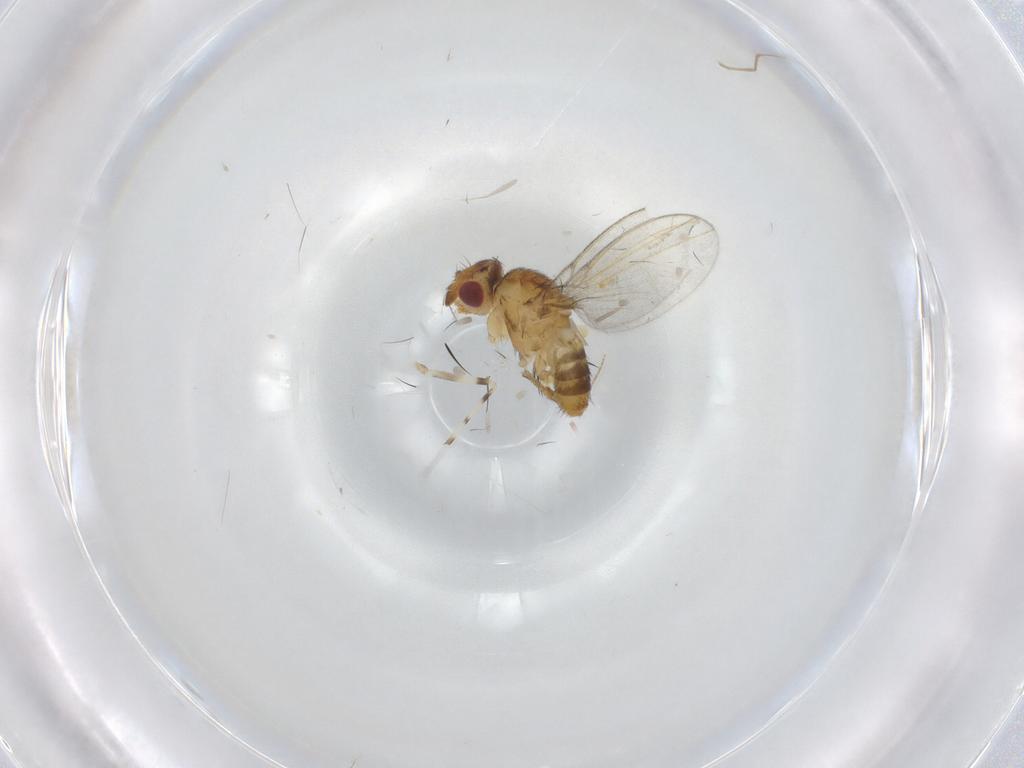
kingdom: Animalia
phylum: Arthropoda
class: Insecta
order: Diptera
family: Milichiidae
